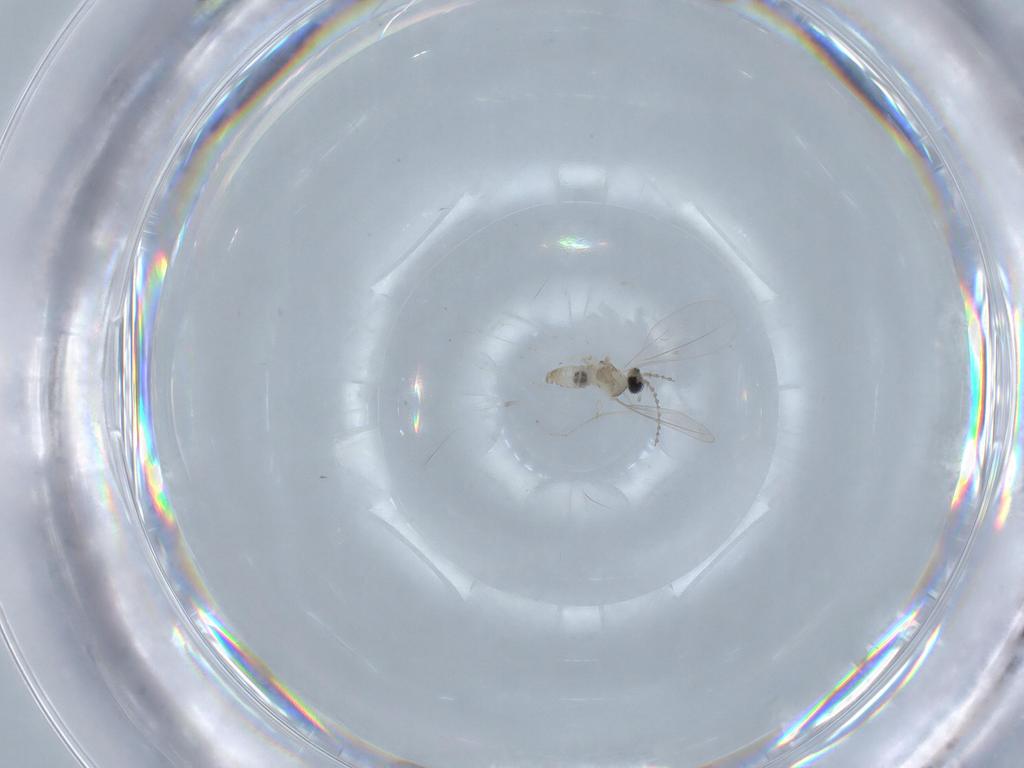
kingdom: Animalia
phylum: Arthropoda
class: Insecta
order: Diptera
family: Cecidomyiidae
